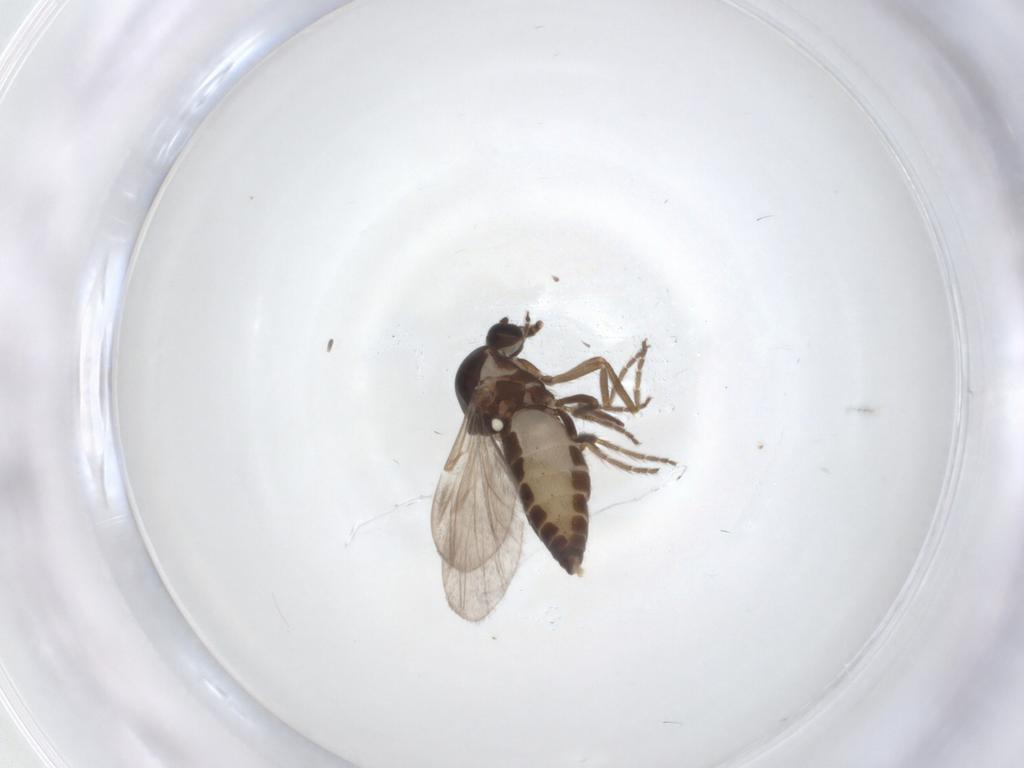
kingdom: Animalia
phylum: Arthropoda
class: Insecta
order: Diptera
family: Ceratopogonidae
